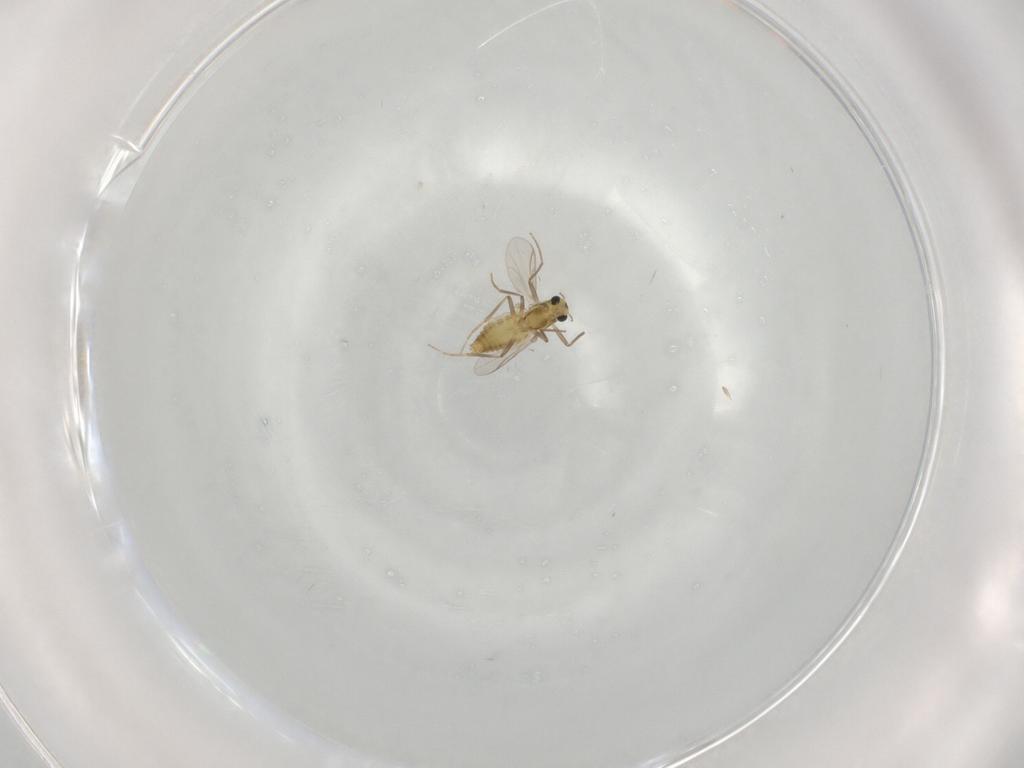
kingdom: Animalia
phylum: Arthropoda
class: Insecta
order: Diptera
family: Chironomidae
